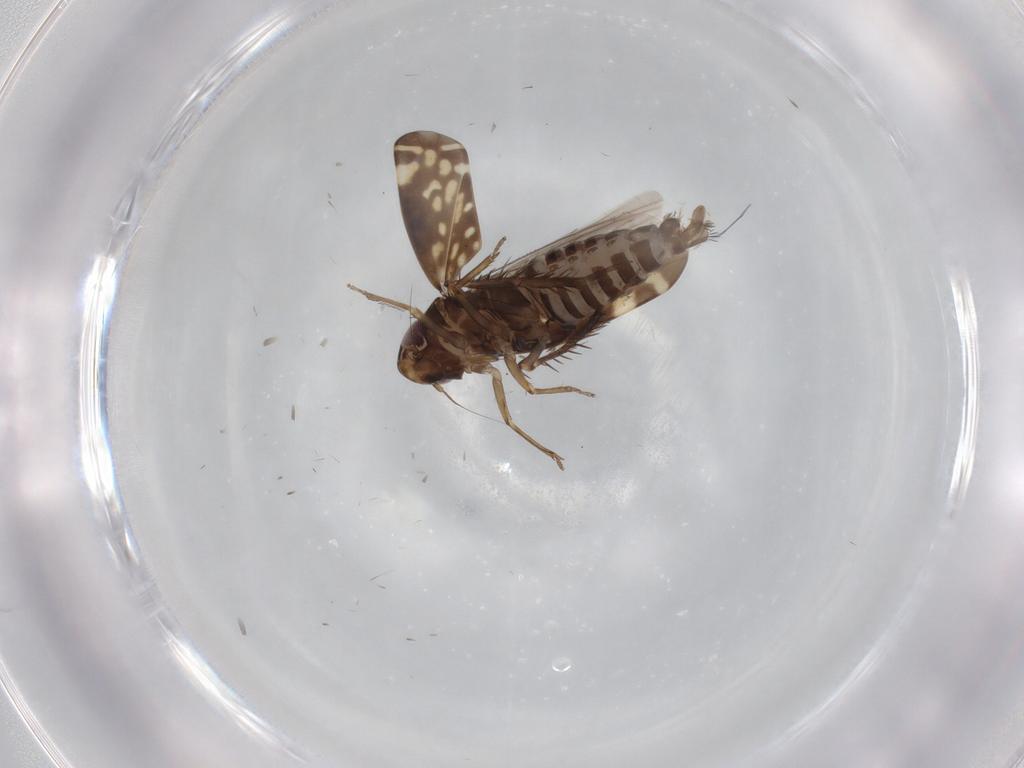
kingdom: Animalia
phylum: Arthropoda
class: Insecta
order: Hemiptera
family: Cicadellidae
